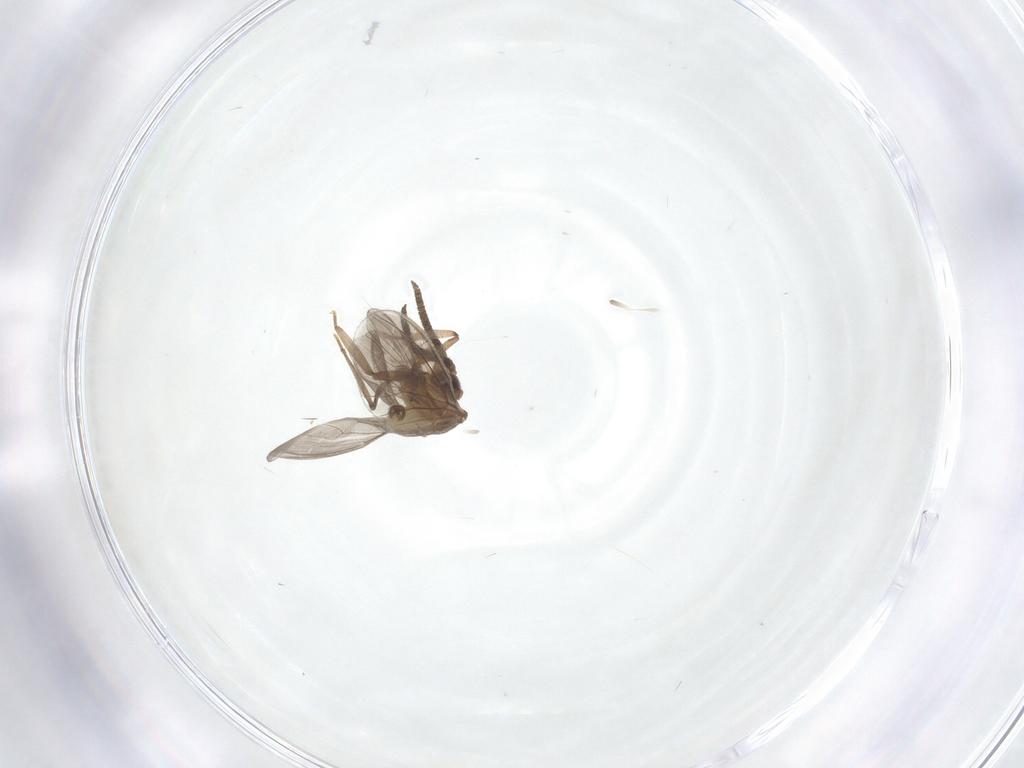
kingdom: Animalia
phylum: Arthropoda
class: Insecta
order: Neuroptera
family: Coniopterygidae
